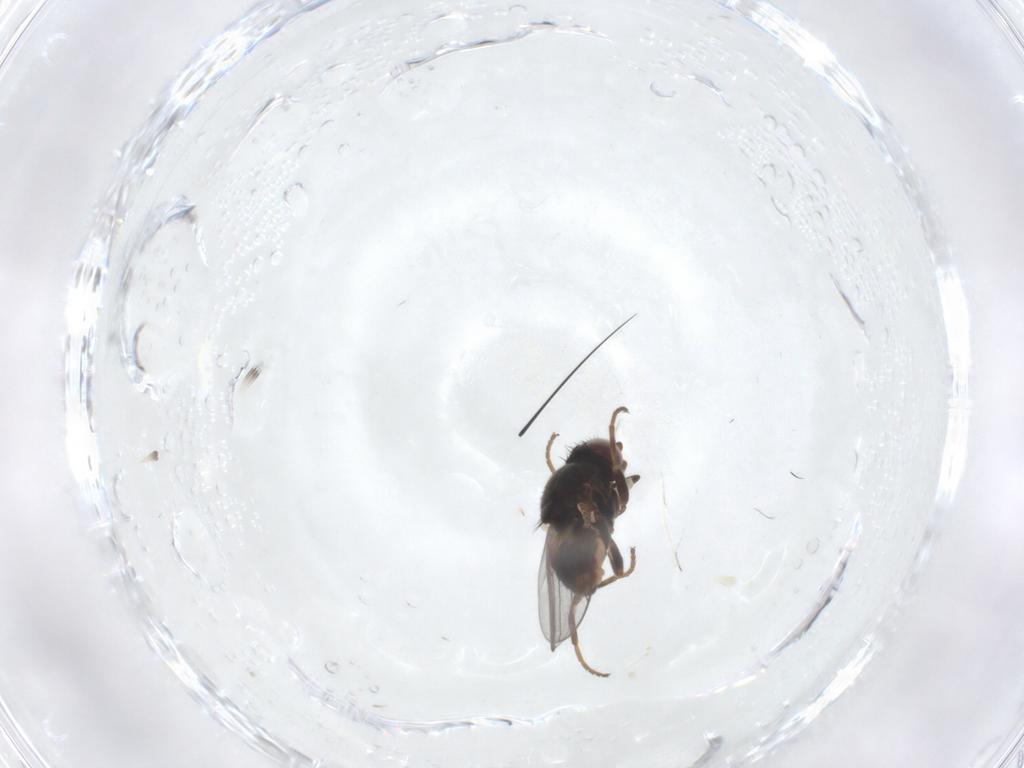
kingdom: Animalia
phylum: Arthropoda
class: Insecta
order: Diptera
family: Chloropidae
